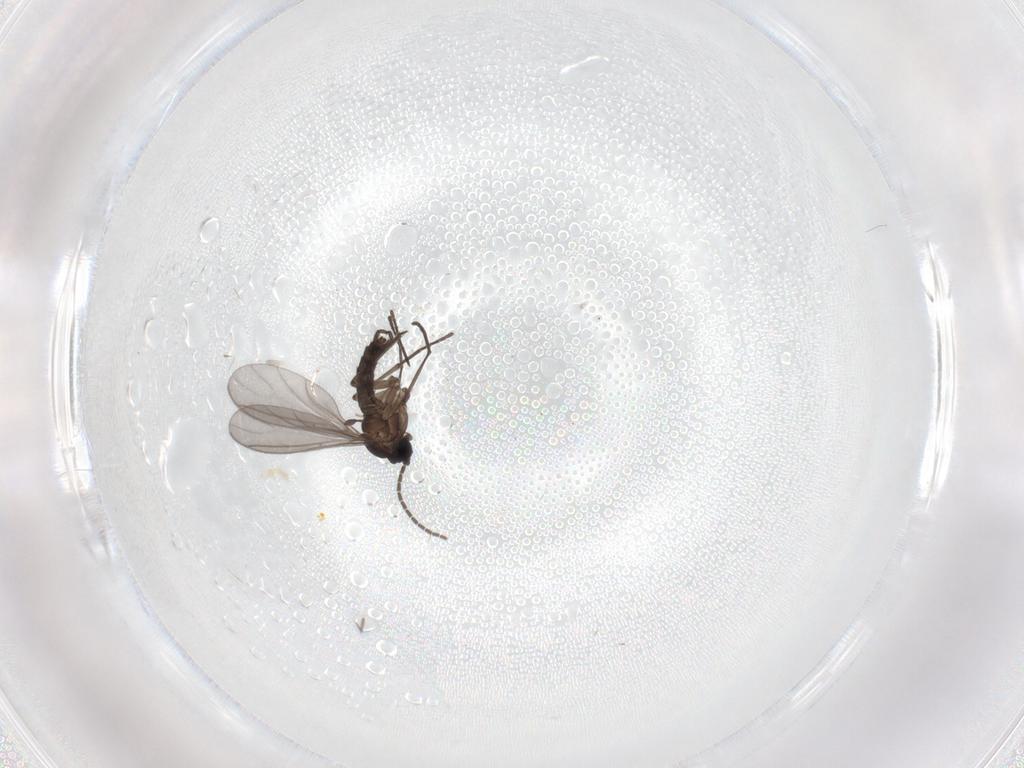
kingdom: Animalia
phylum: Arthropoda
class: Insecta
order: Diptera
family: Sciaridae
